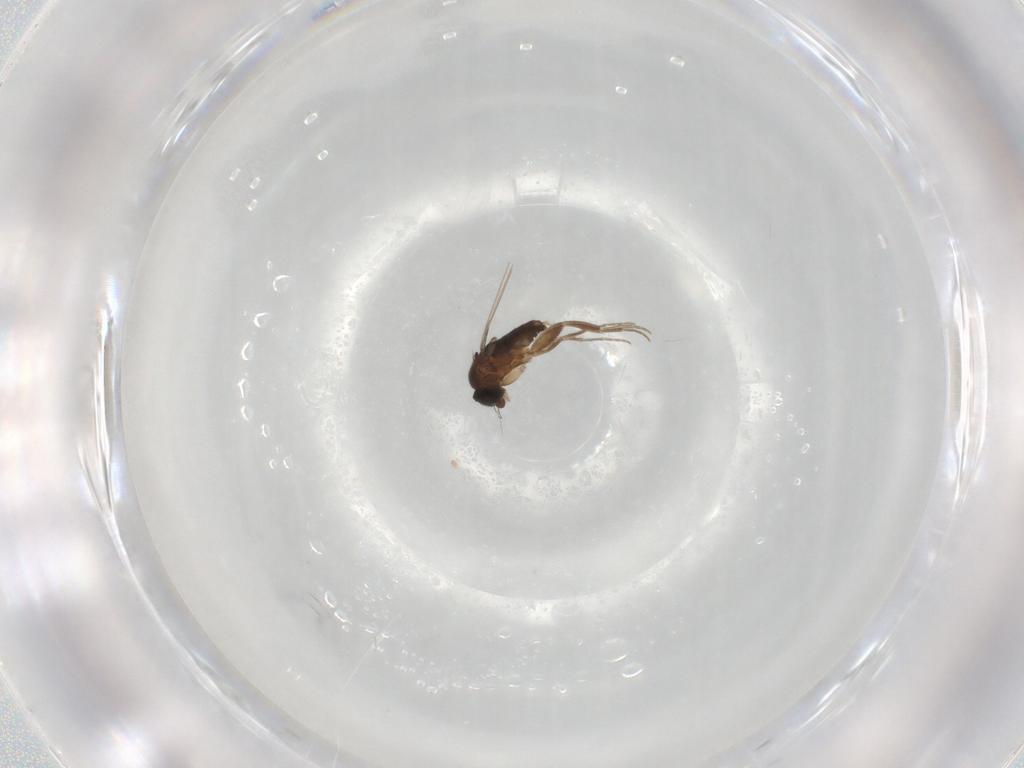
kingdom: Animalia
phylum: Arthropoda
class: Insecta
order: Diptera
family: Phoridae
